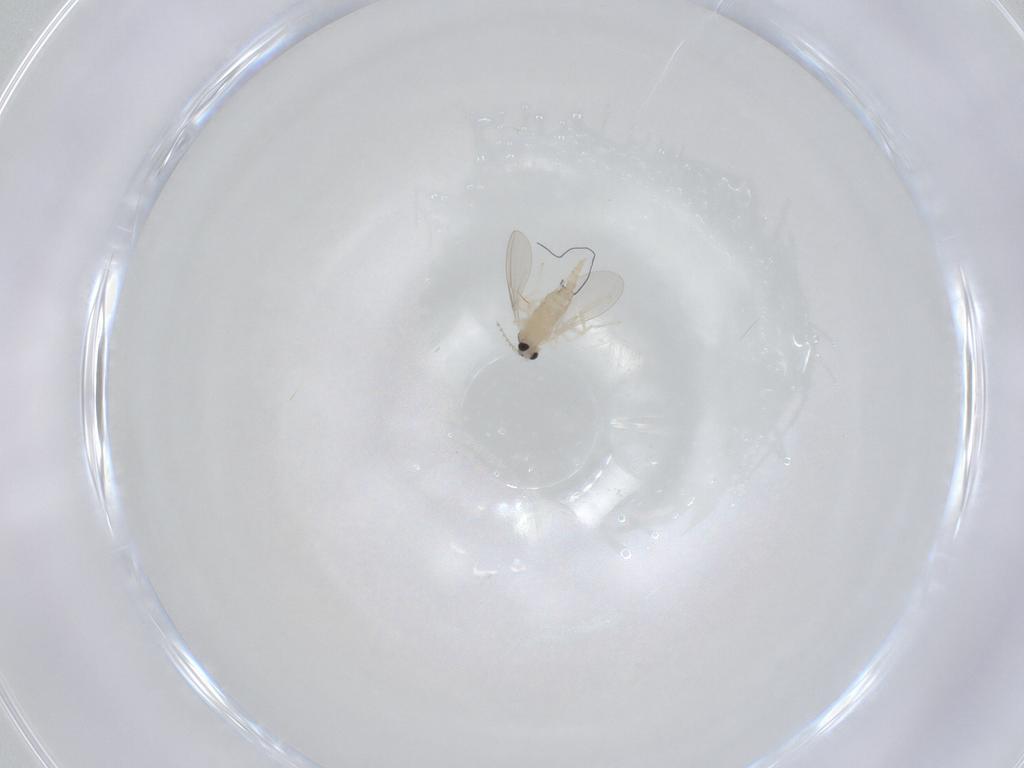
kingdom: Animalia
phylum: Arthropoda
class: Insecta
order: Diptera
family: Cecidomyiidae
